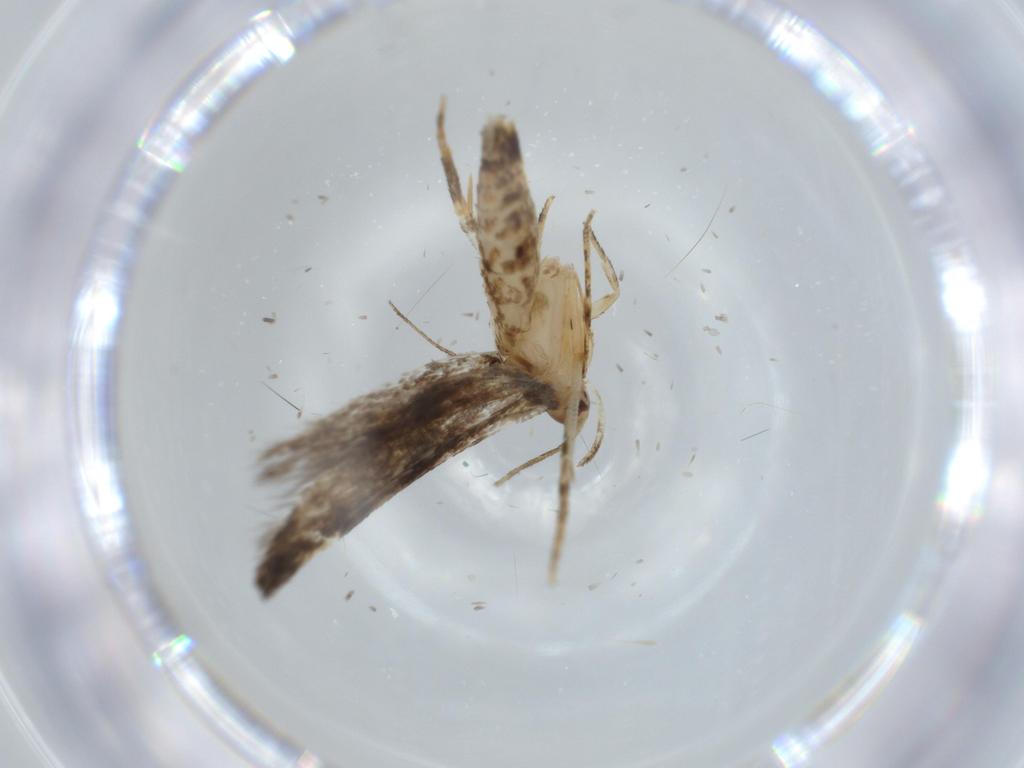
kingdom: Animalia
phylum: Arthropoda
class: Insecta
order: Lepidoptera
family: Momphidae
